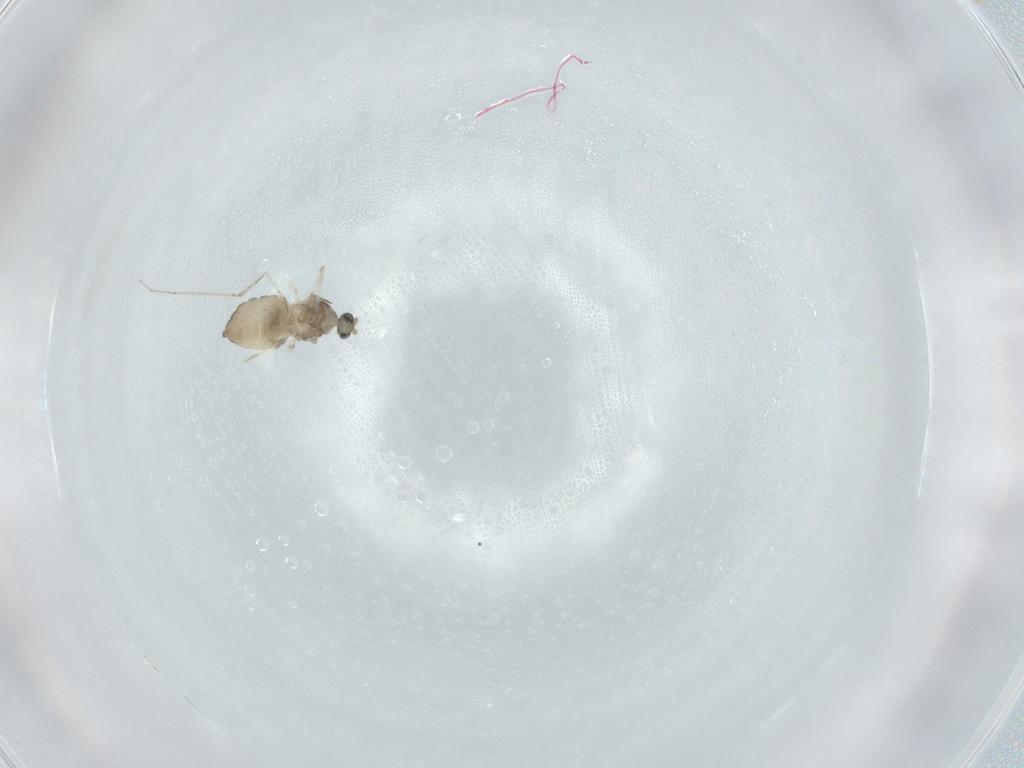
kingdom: Animalia
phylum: Arthropoda
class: Insecta
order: Diptera
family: Cecidomyiidae
